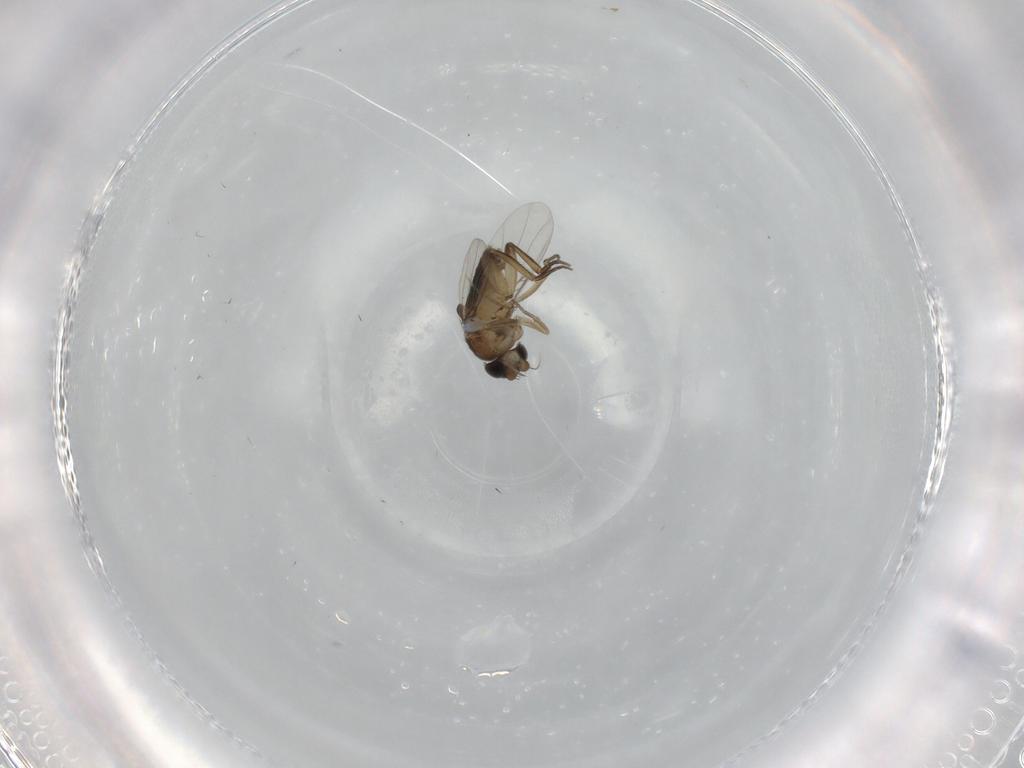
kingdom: Animalia
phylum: Arthropoda
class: Insecta
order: Diptera
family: Phoridae
